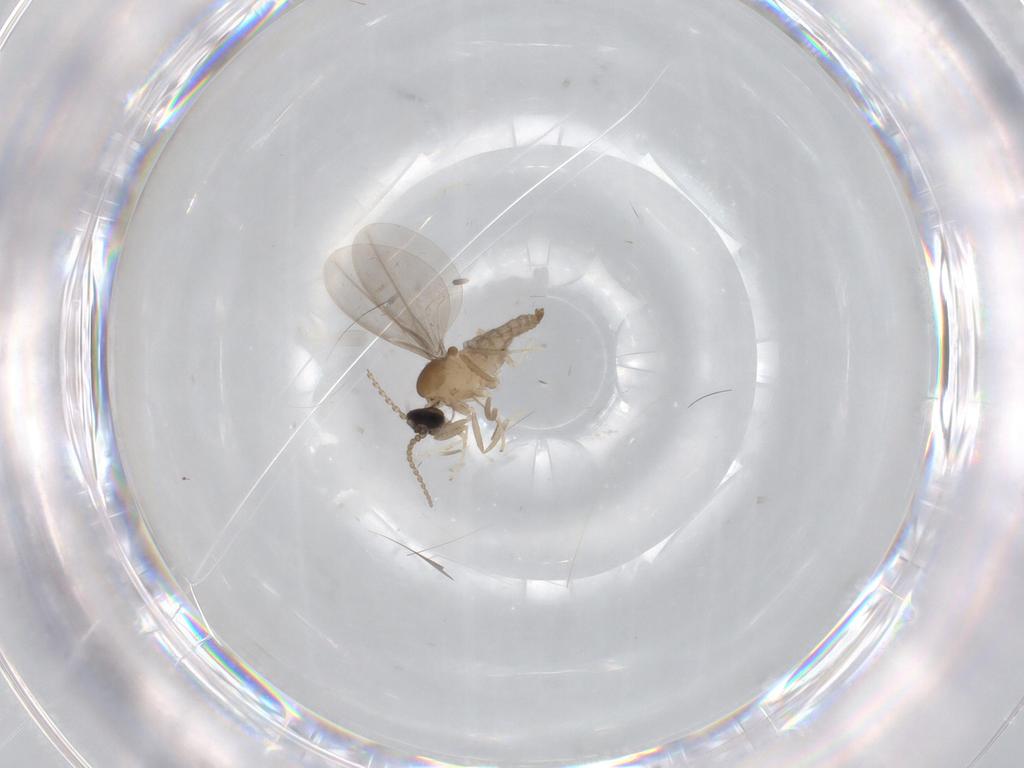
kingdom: Animalia
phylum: Arthropoda
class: Insecta
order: Diptera
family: Cecidomyiidae
